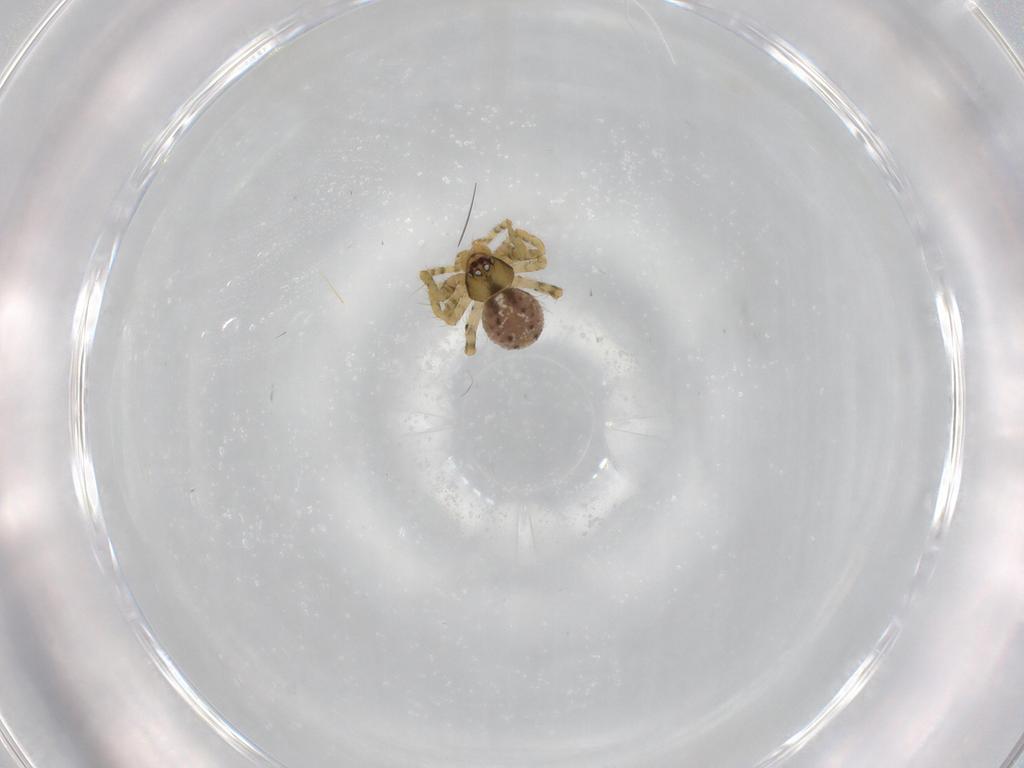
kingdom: Animalia
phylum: Arthropoda
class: Arachnida
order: Araneae
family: Theridiidae
